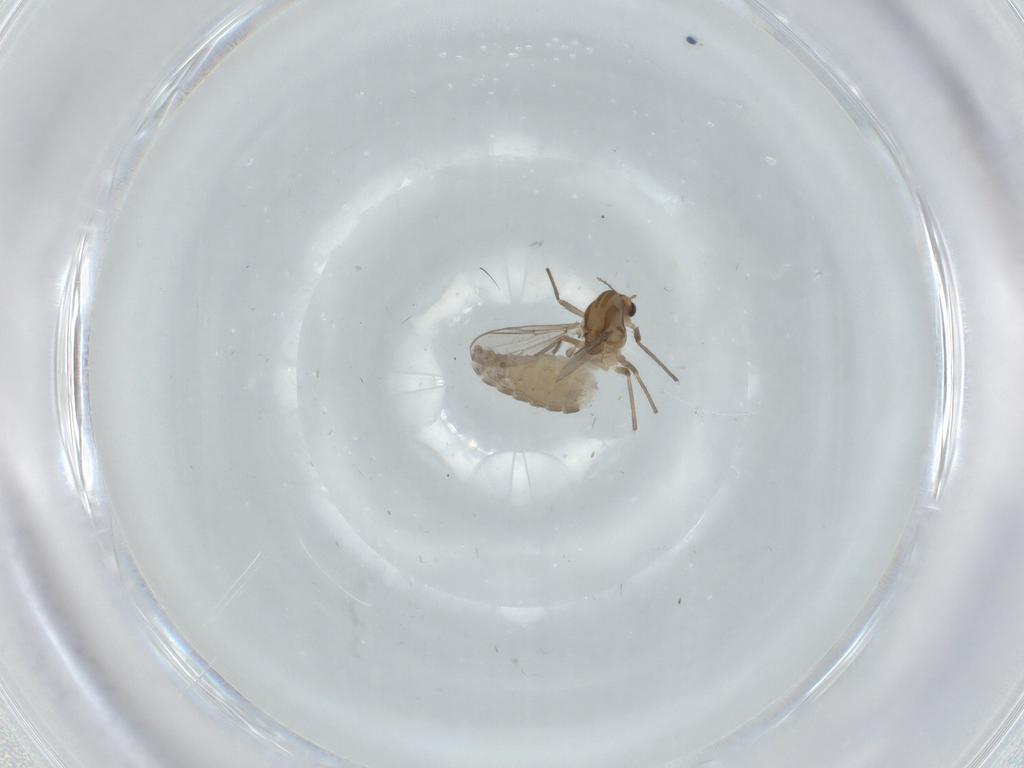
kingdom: Animalia
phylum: Arthropoda
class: Insecta
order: Diptera
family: Chironomidae
